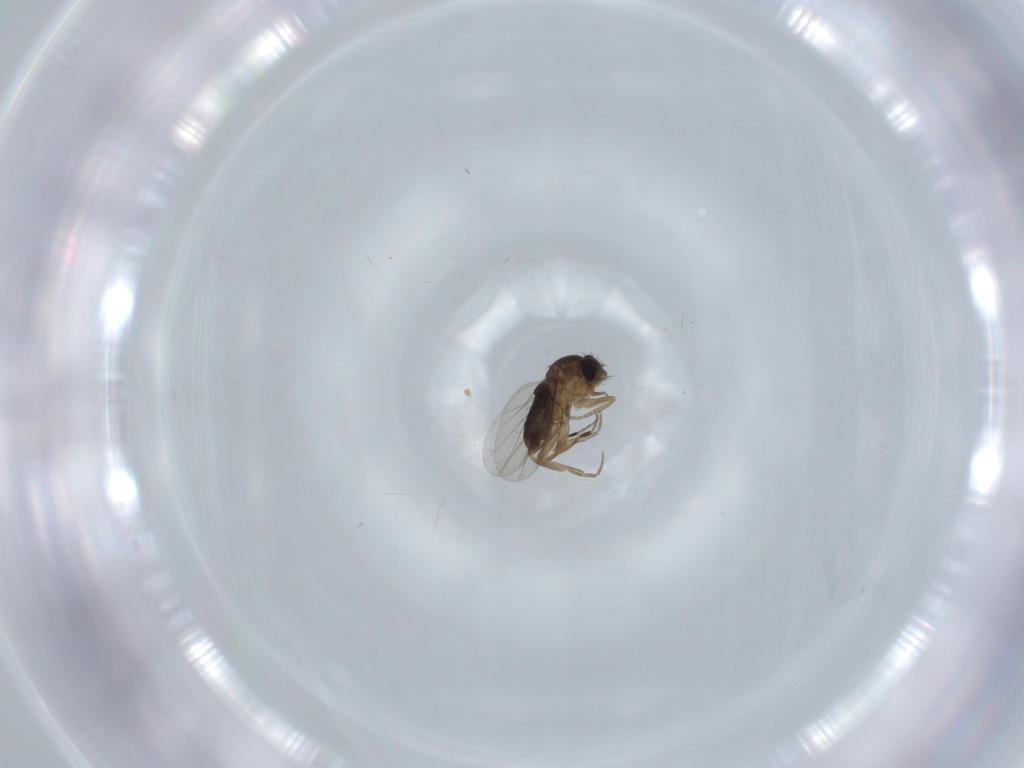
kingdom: Animalia
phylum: Arthropoda
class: Insecta
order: Diptera
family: Phoridae
